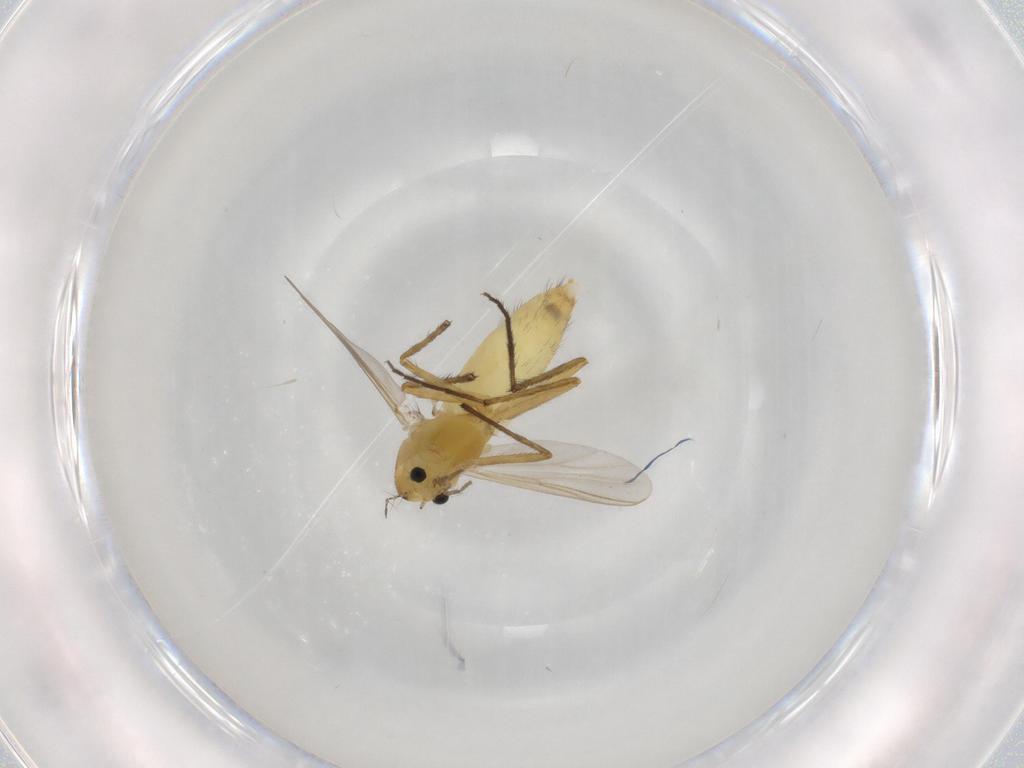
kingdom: Animalia
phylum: Arthropoda
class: Insecta
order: Diptera
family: Chironomidae
